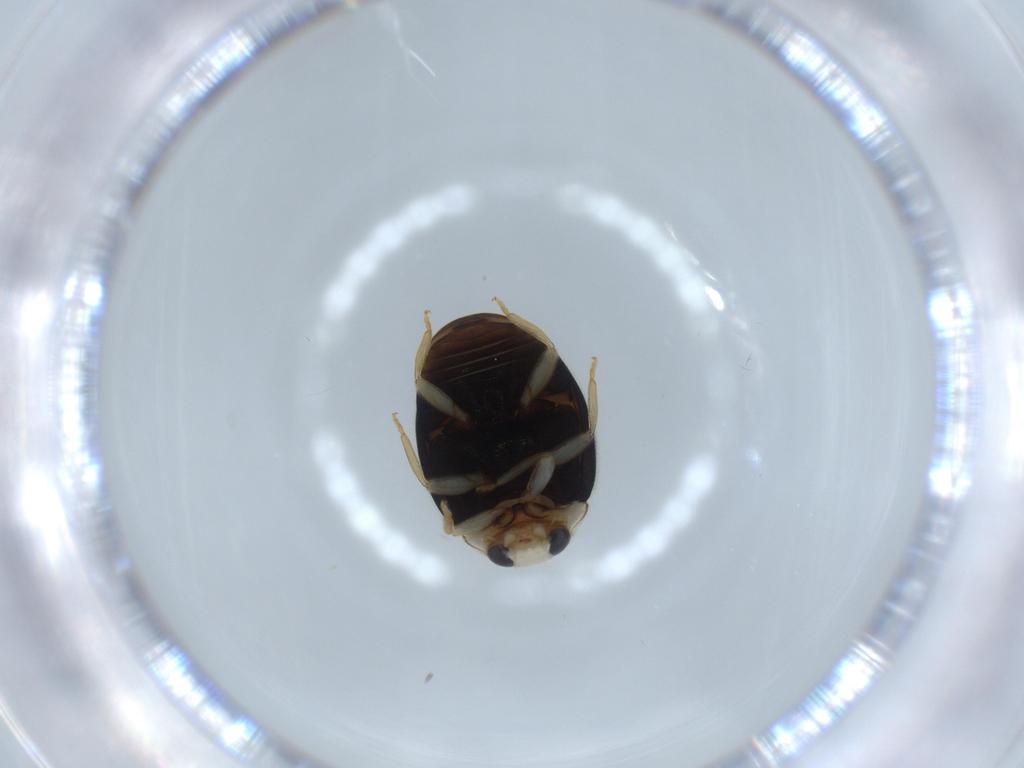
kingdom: Animalia
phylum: Arthropoda
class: Insecta
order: Coleoptera
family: Coccinellidae
